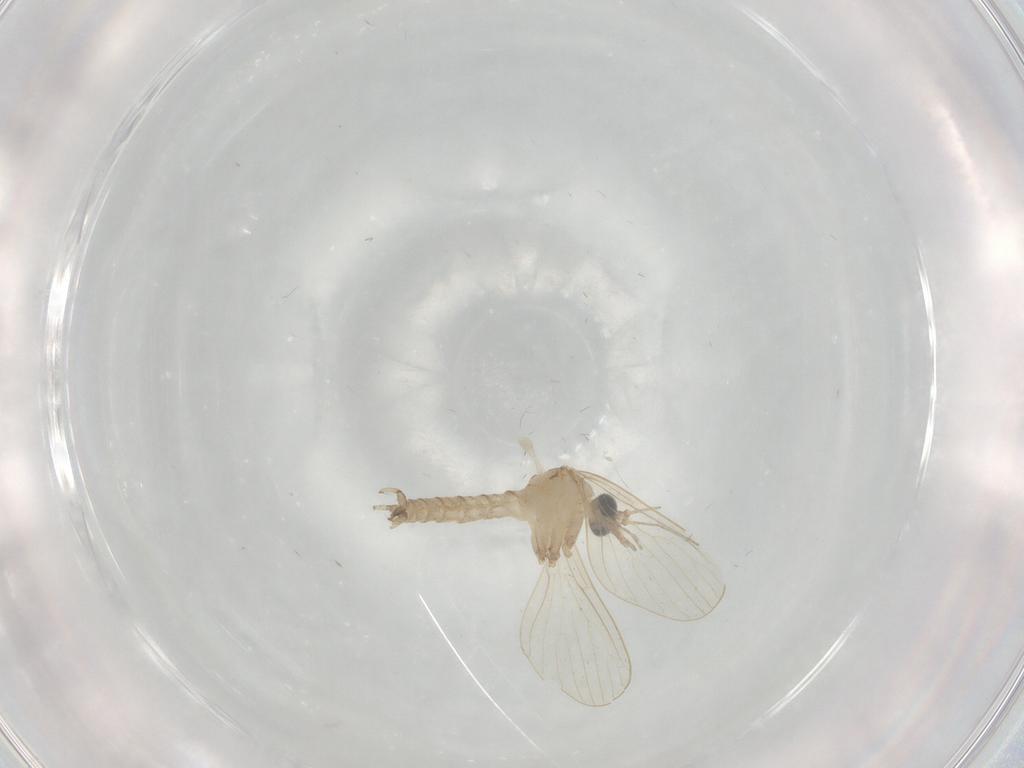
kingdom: Animalia
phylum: Arthropoda
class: Insecta
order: Diptera
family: Psychodidae
